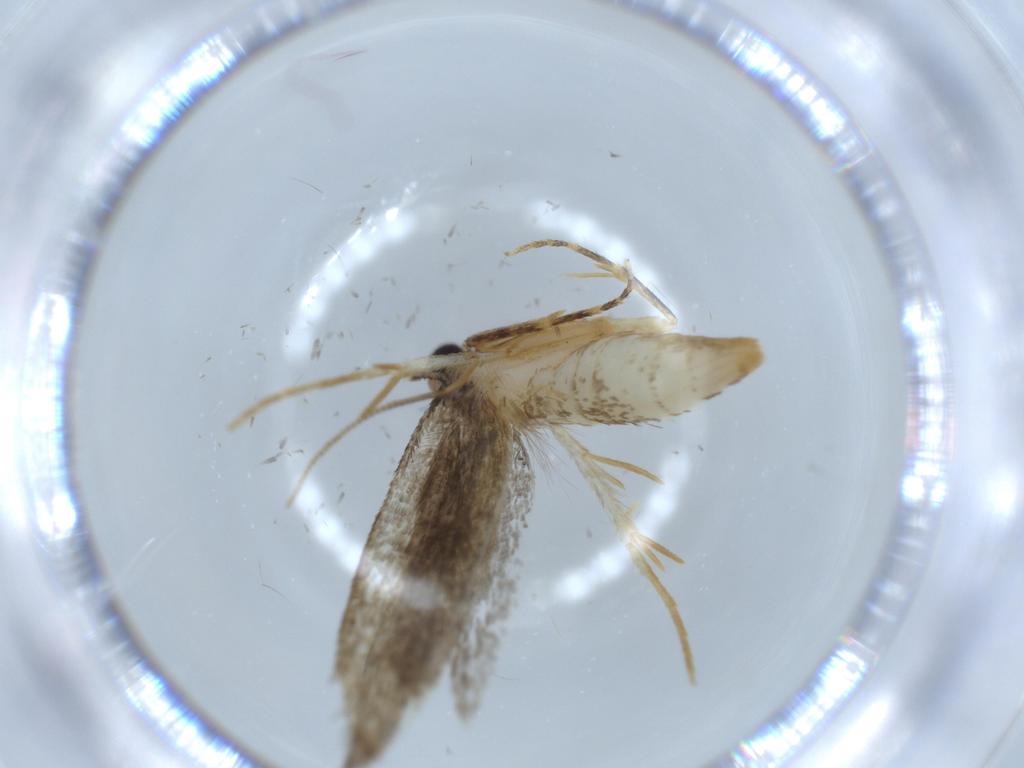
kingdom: Animalia
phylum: Arthropoda
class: Insecta
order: Lepidoptera
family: Tineidae
